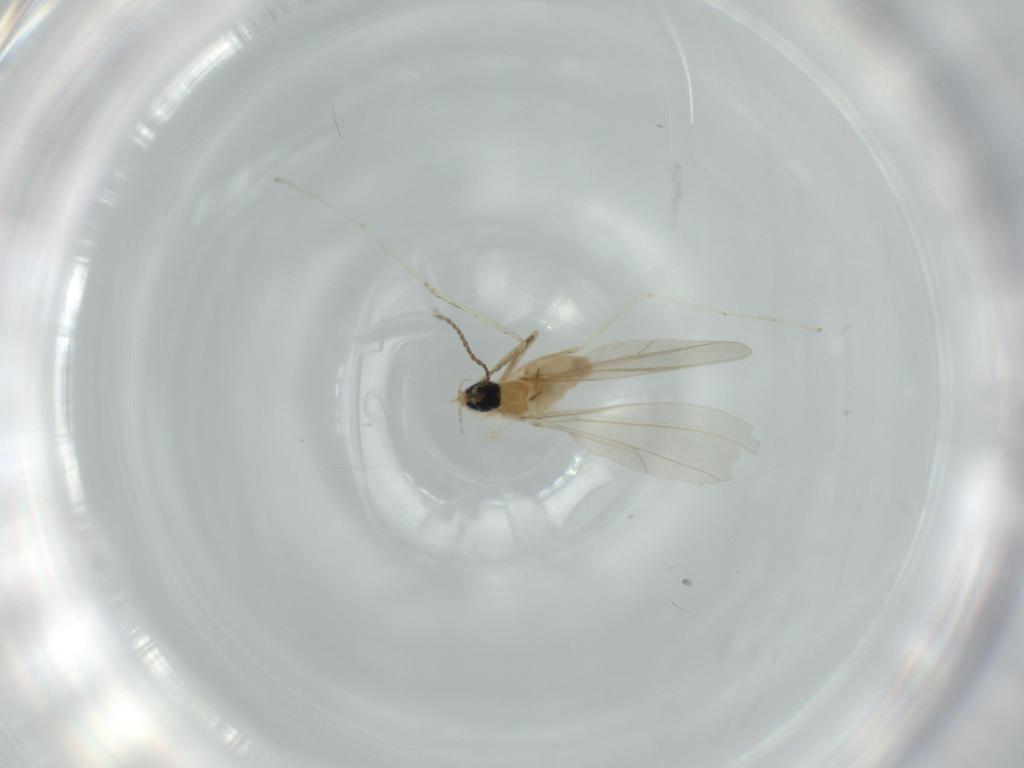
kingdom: Animalia
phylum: Arthropoda
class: Insecta
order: Diptera
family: Cecidomyiidae
